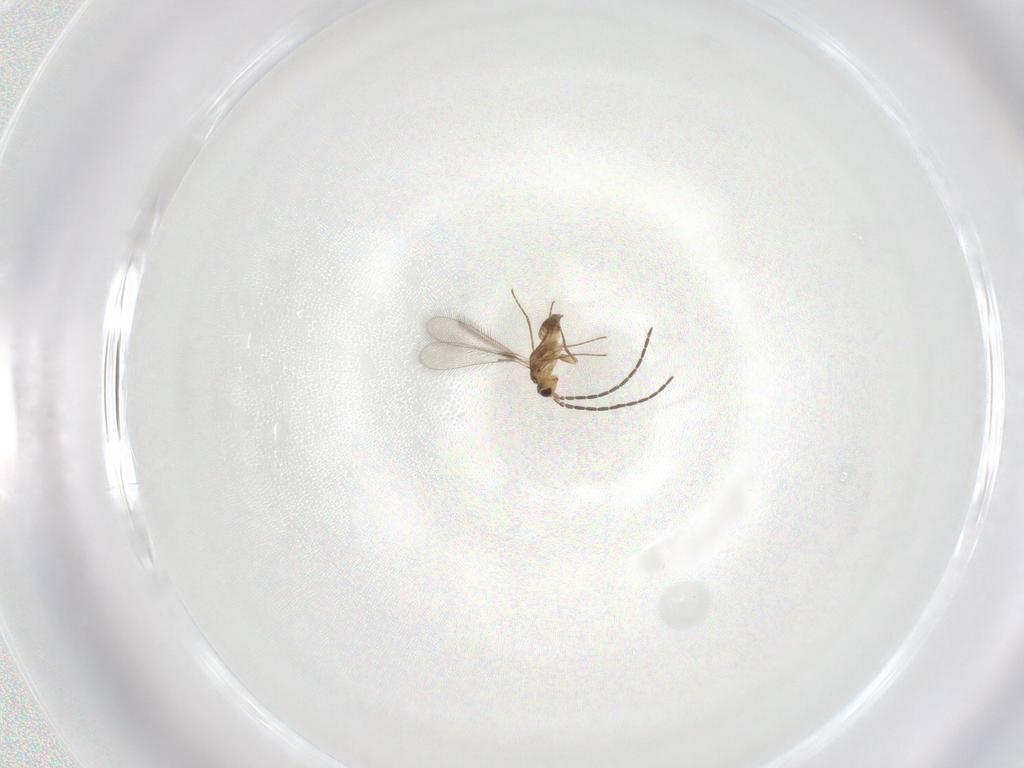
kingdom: Animalia
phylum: Arthropoda
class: Insecta
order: Hymenoptera
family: Mymaridae
